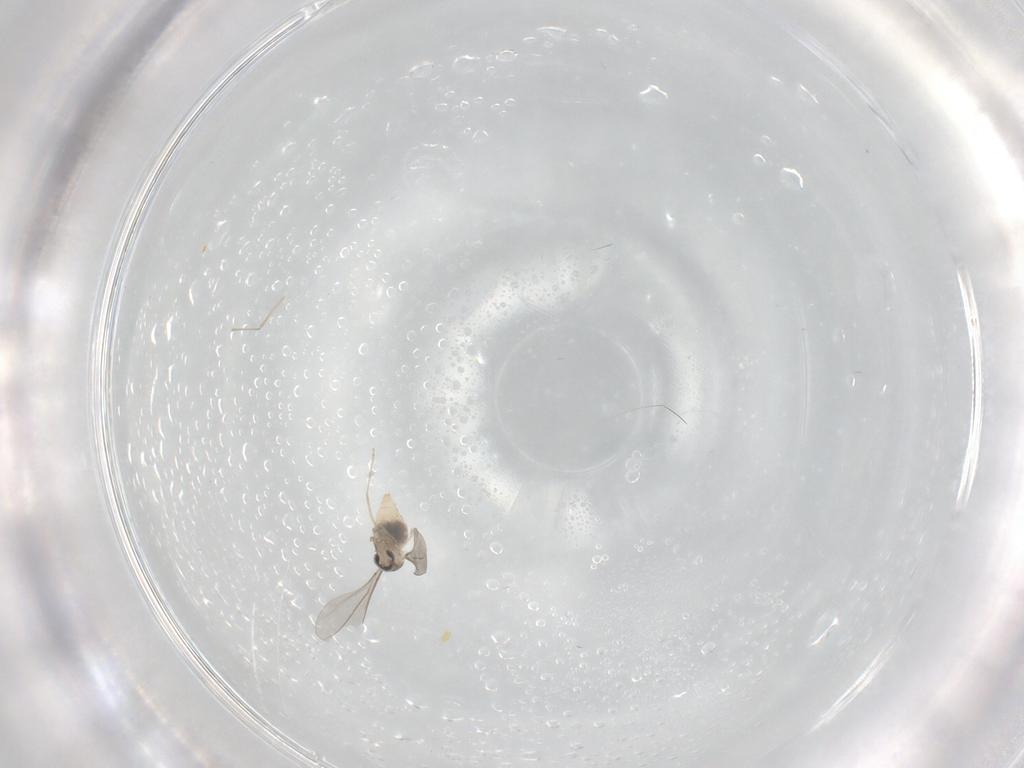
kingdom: Animalia
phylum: Arthropoda
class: Insecta
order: Diptera
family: Cecidomyiidae
